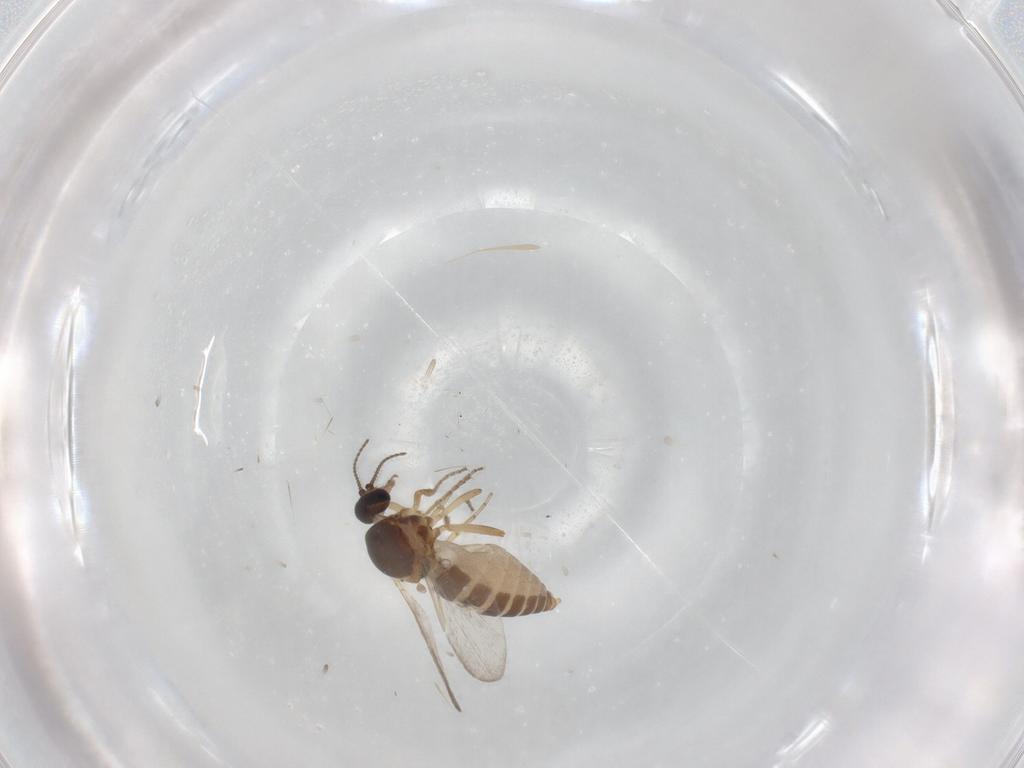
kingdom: Animalia
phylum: Arthropoda
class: Insecta
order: Diptera
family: Ceratopogonidae
